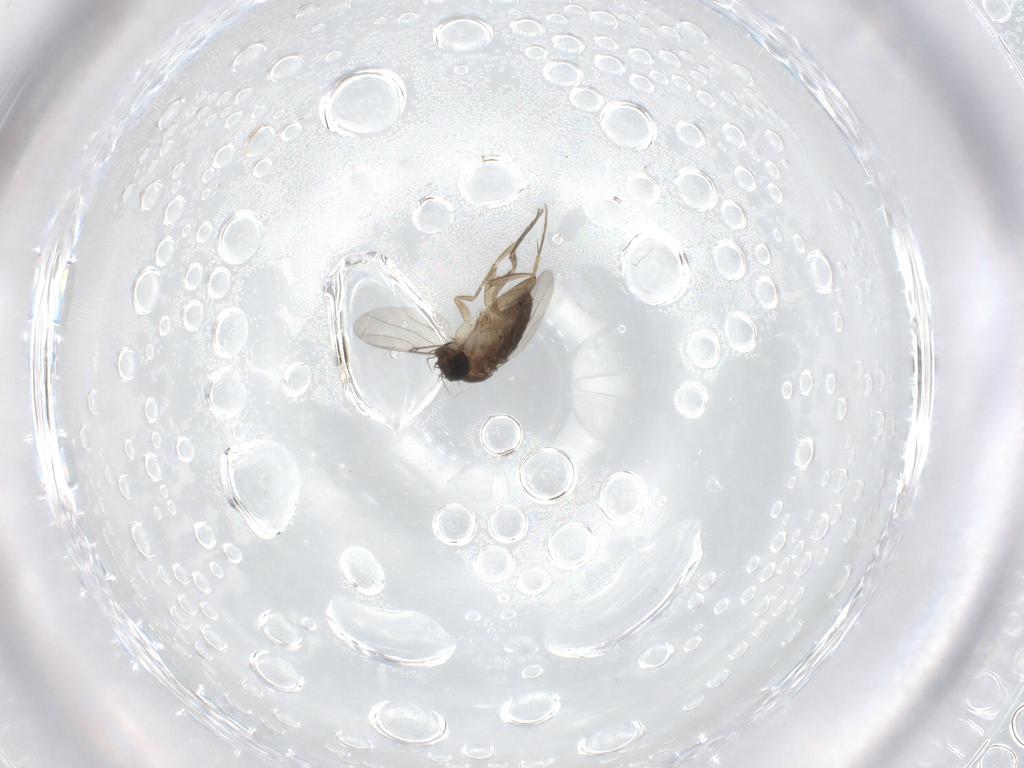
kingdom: Animalia
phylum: Arthropoda
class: Insecta
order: Diptera
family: Phoridae
